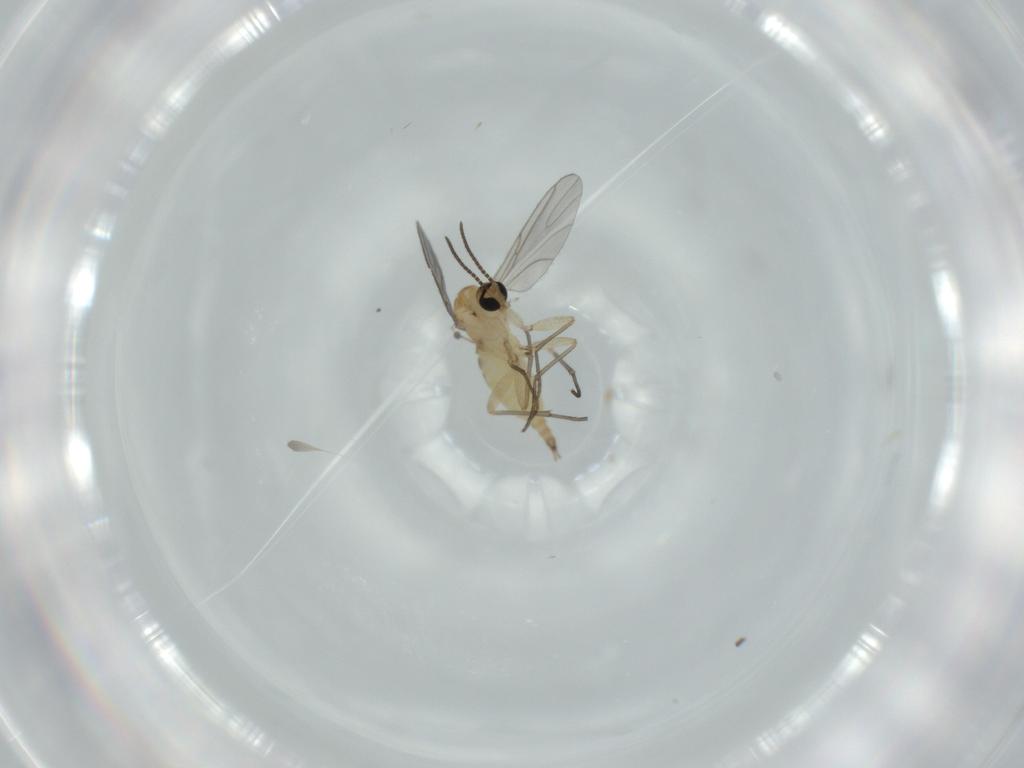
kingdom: Animalia
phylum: Arthropoda
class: Insecta
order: Diptera
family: Sciaridae
